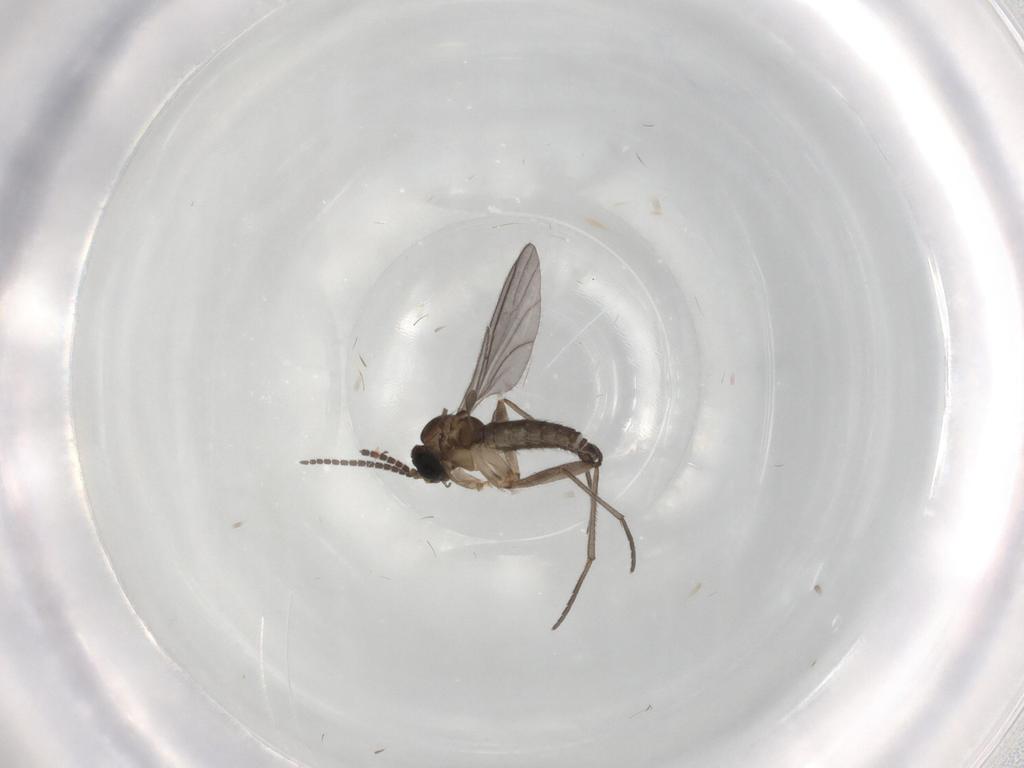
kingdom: Animalia
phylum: Arthropoda
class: Insecta
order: Diptera
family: Sciaridae
